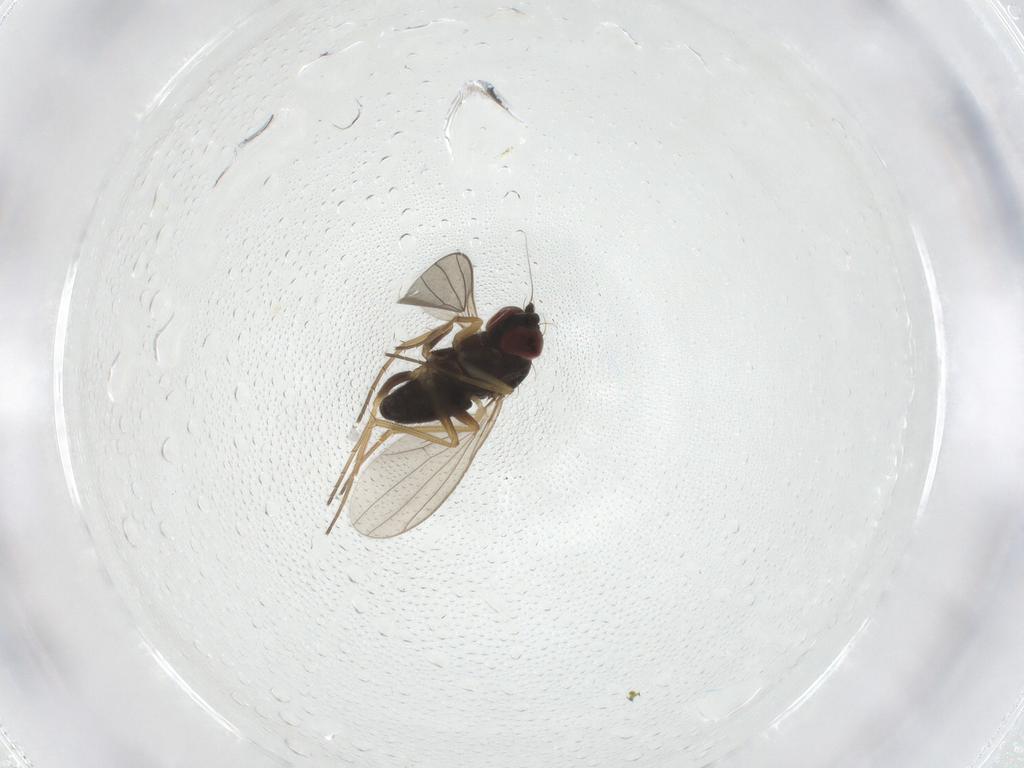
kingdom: Animalia
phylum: Arthropoda
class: Insecta
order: Diptera
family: Dolichopodidae
